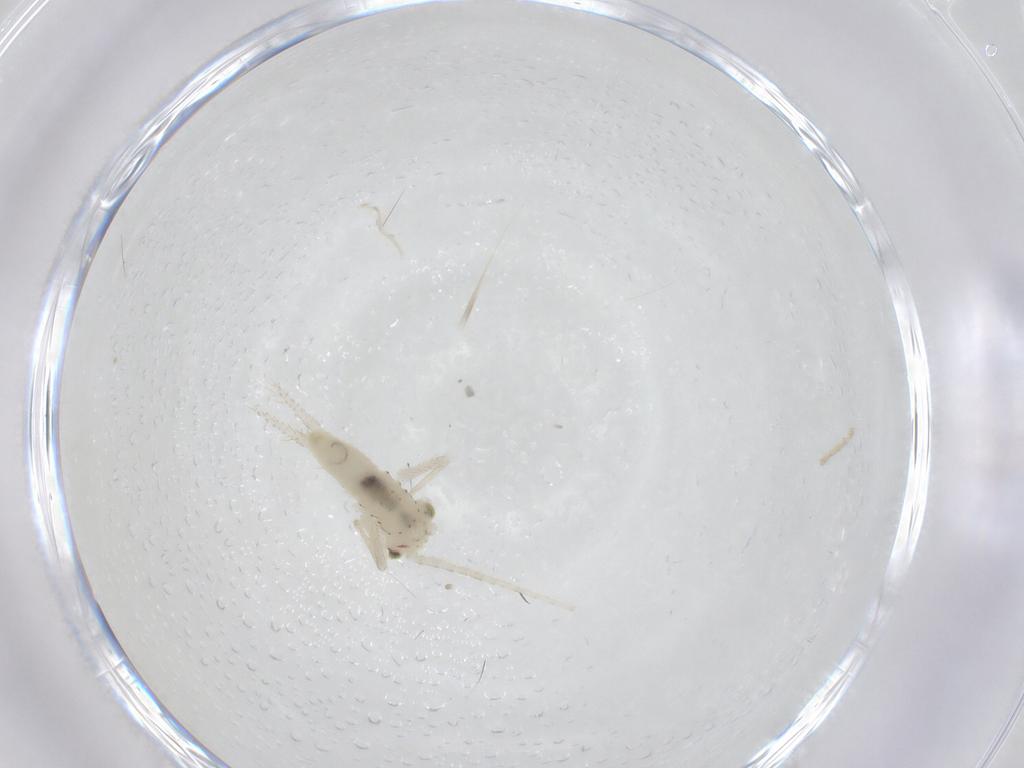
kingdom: Animalia
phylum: Arthropoda
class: Insecta
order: Orthoptera
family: Trigonidiidae
